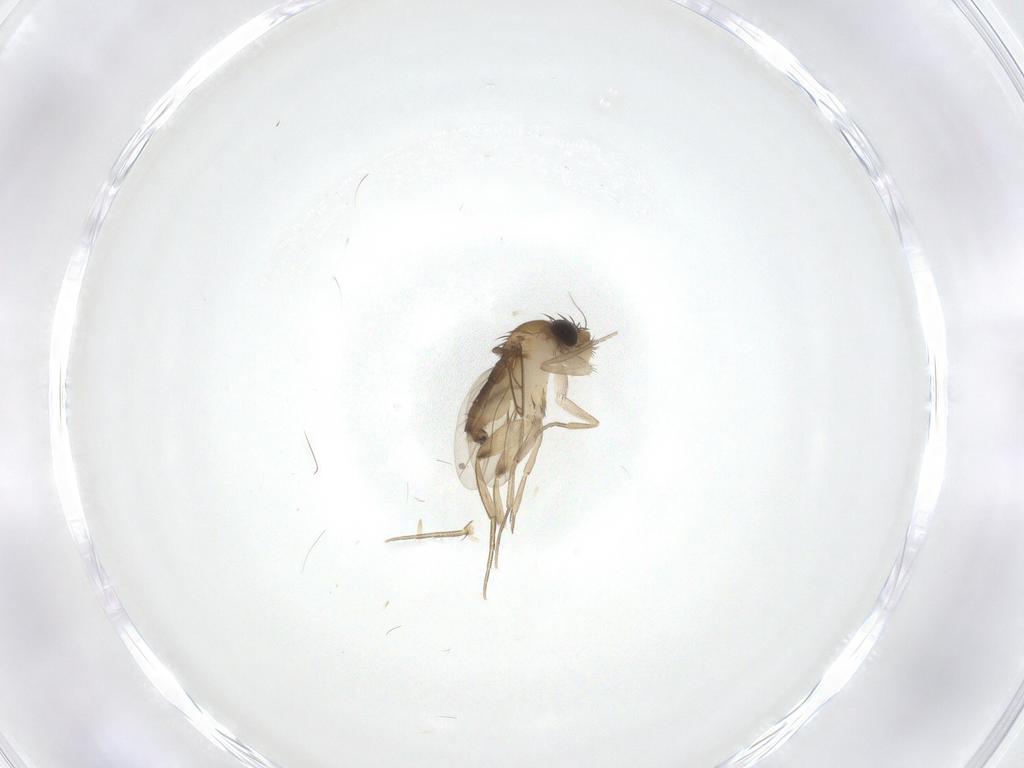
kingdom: Animalia
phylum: Arthropoda
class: Insecta
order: Diptera
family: Phoridae
